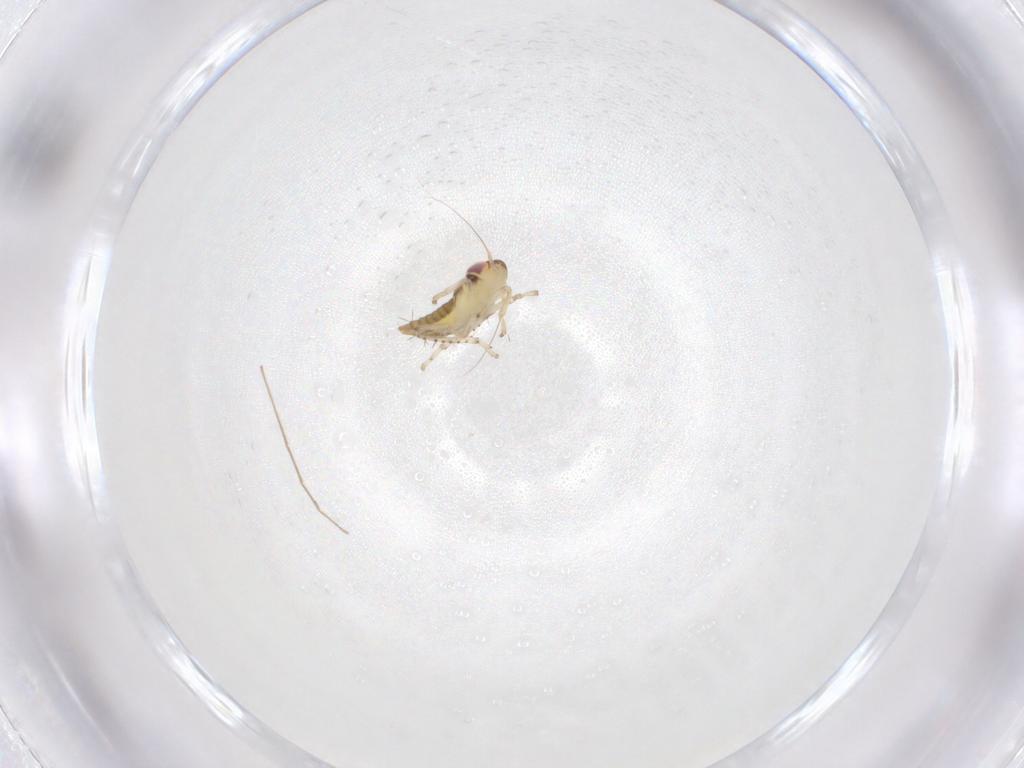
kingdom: Animalia
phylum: Arthropoda
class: Insecta
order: Hemiptera
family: Cicadellidae
